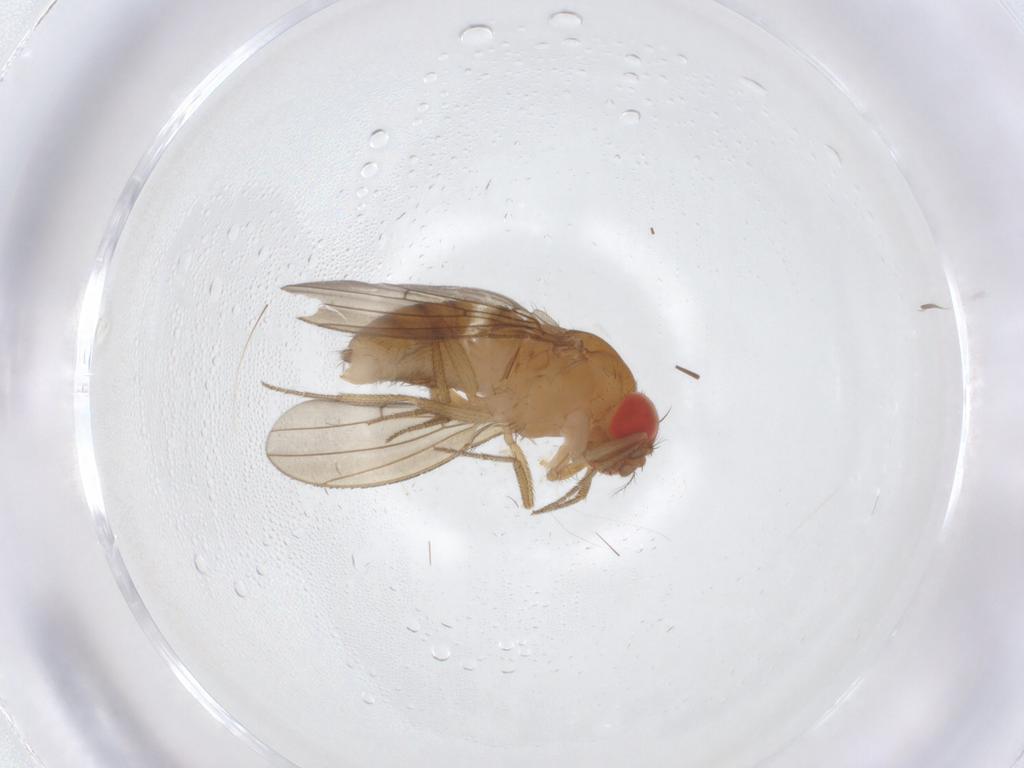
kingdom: Animalia
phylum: Arthropoda
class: Insecta
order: Diptera
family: Drosophilidae
